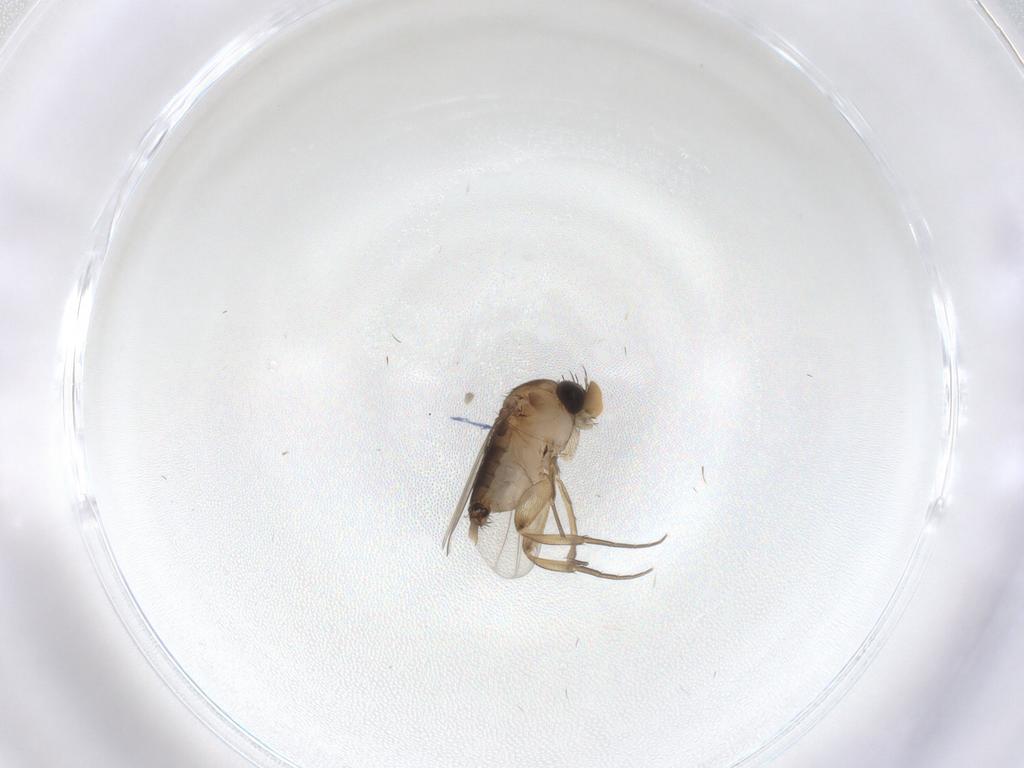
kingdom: Animalia
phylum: Arthropoda
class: Insecta
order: Diptera
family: Phoridae
